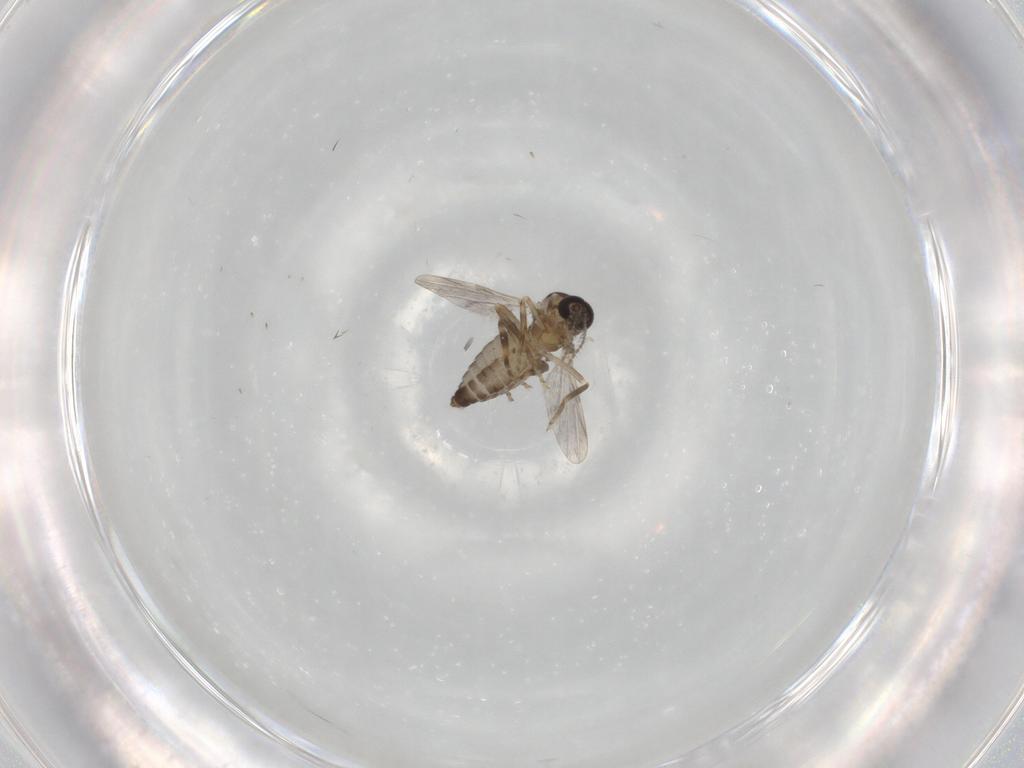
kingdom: Animalia
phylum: Arthropoda
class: Insecta
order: Diptera
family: Ceratopogonidae
